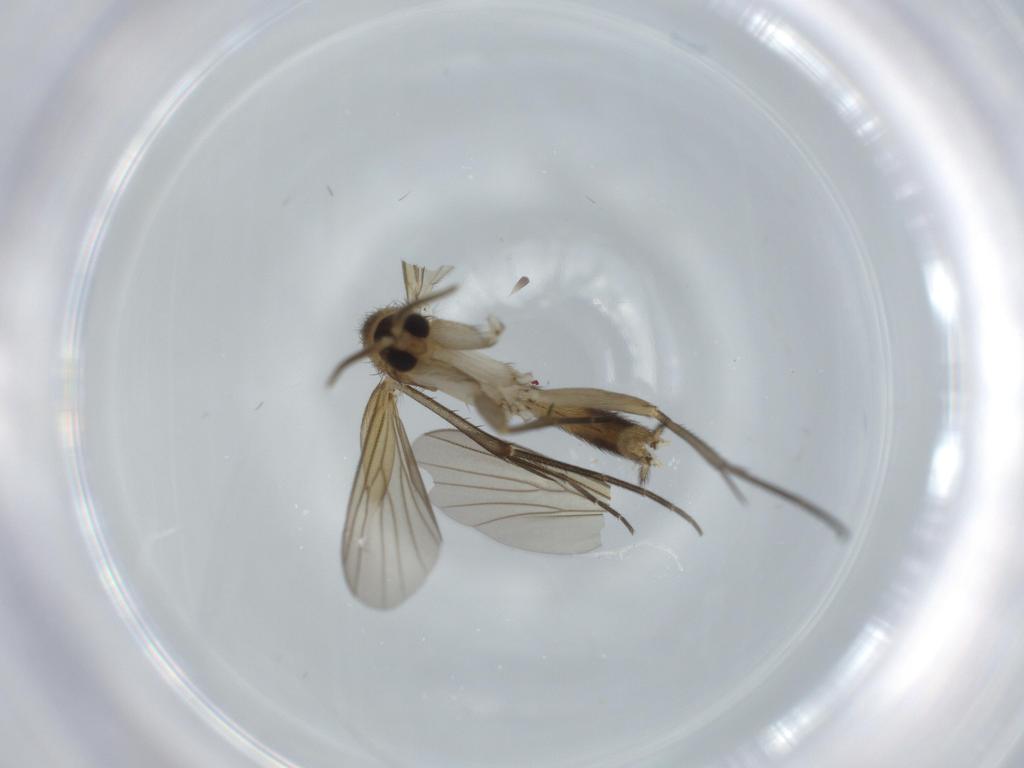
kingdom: Animalia
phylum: Arthropoda
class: Insecta
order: Diptera
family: Mycetophilidae
